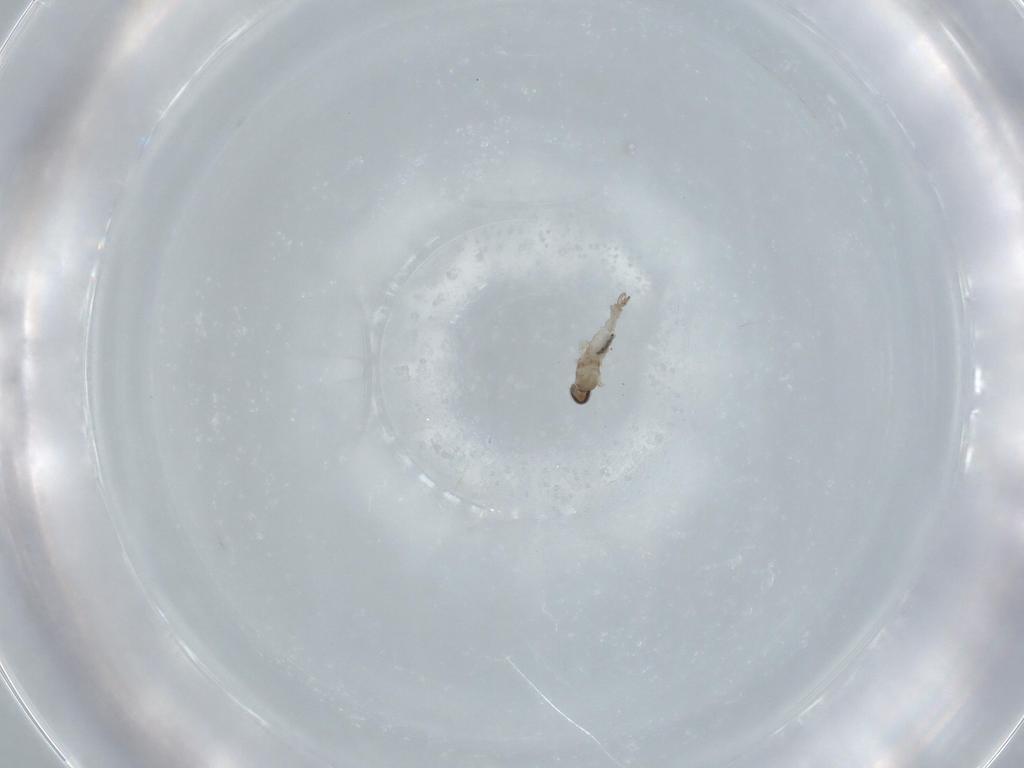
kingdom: Animalia
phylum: Arthropoda
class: Insecta
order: Diptera
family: Cecidomyiidae
